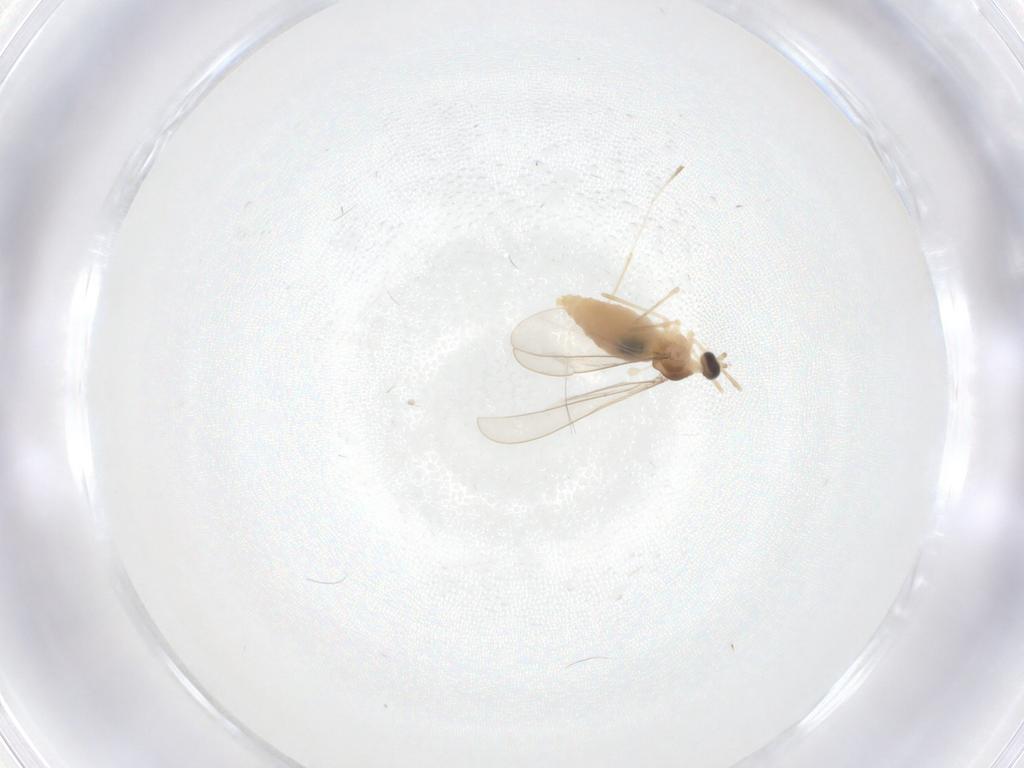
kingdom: Animalia
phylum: Arthropoda
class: Insecta
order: Diptera
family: Cecidomyiidae
